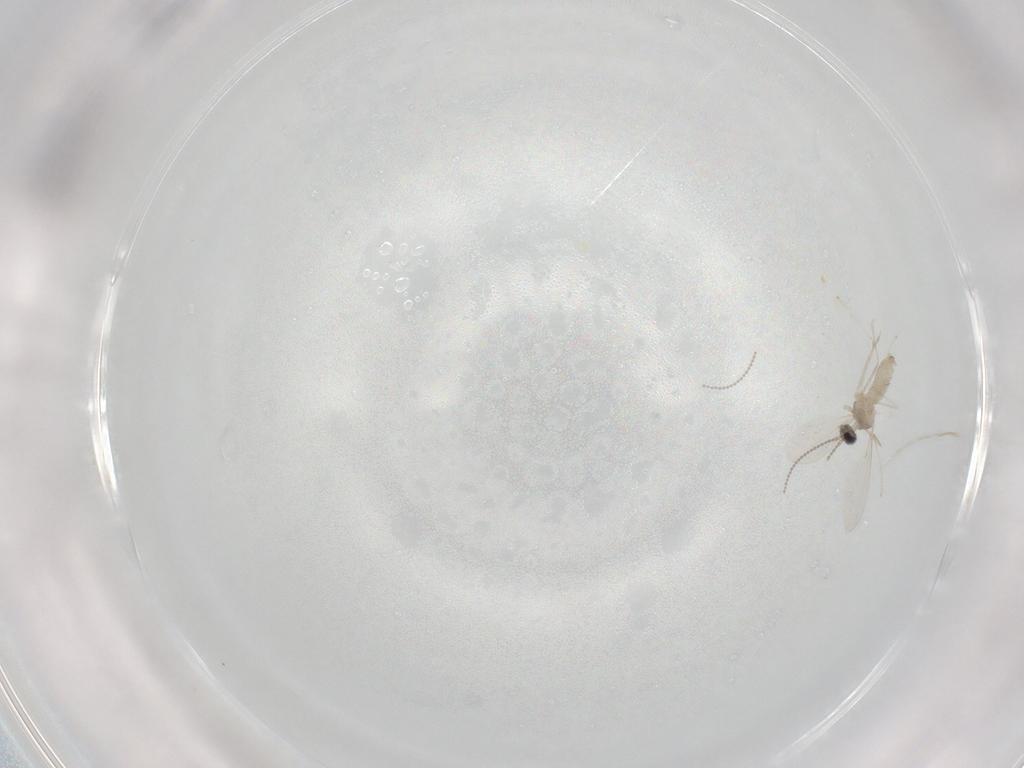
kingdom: Animalia
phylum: Arthropoda
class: Insecta
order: Diptera
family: Cecidomyiidae
